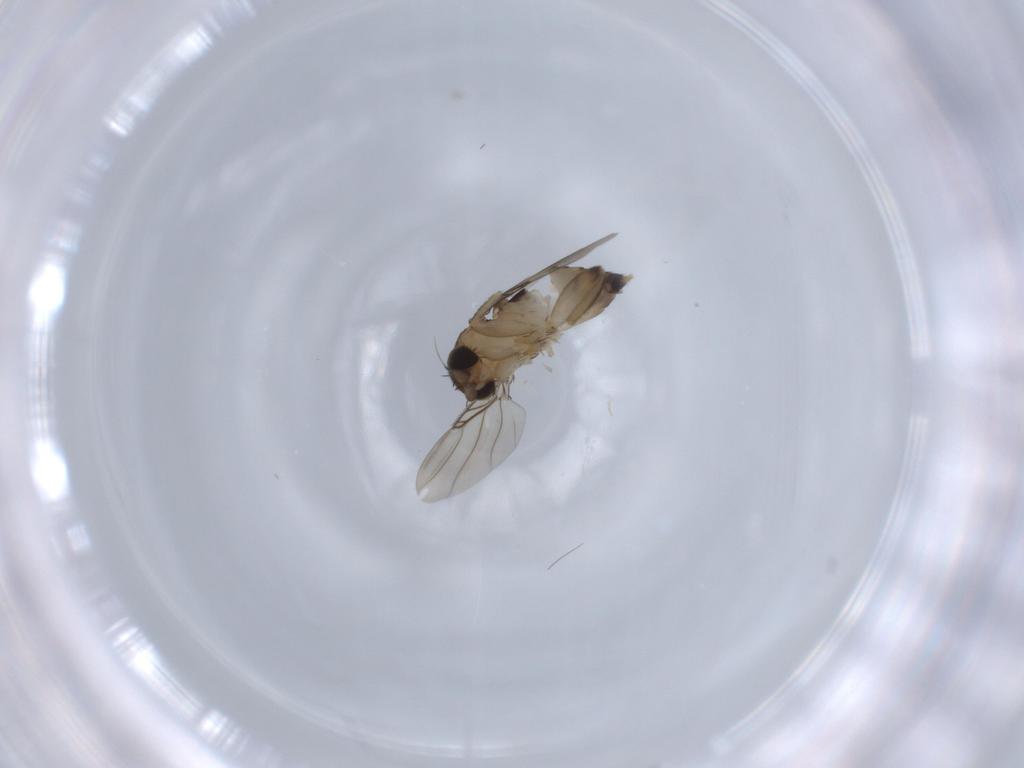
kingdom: Animalia
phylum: Arthropoda
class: Insecta
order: Diptera
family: Phoridae
